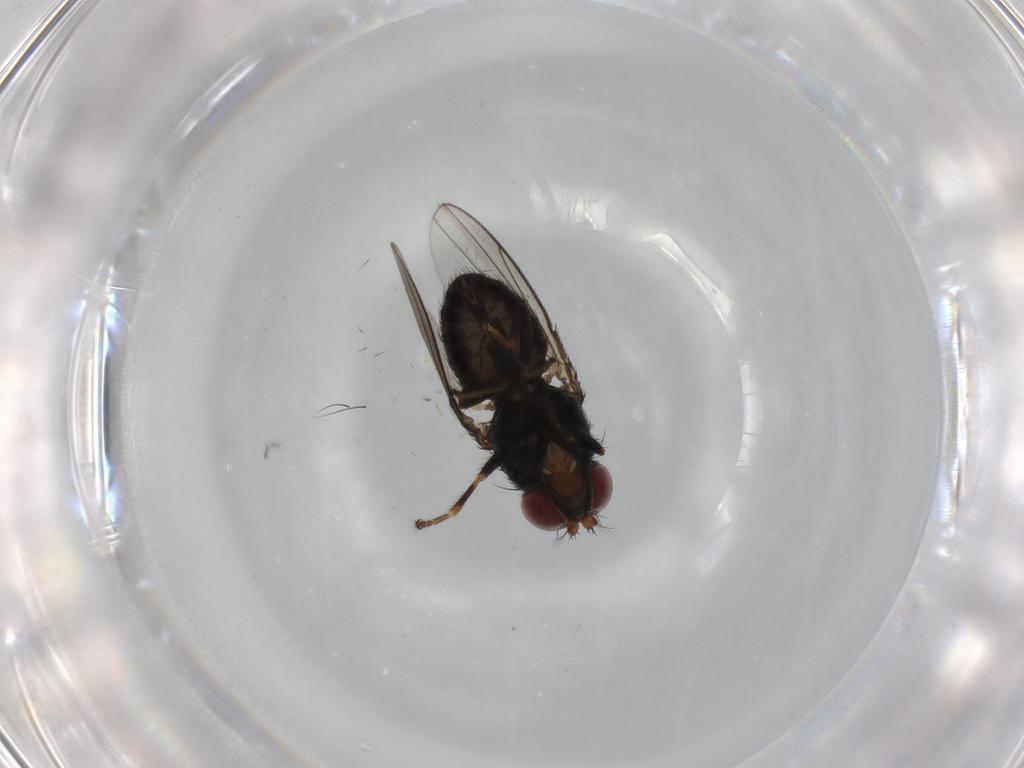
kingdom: Animalia
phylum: Arthropoda
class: Insecta
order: Diptera
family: Ephydridae
